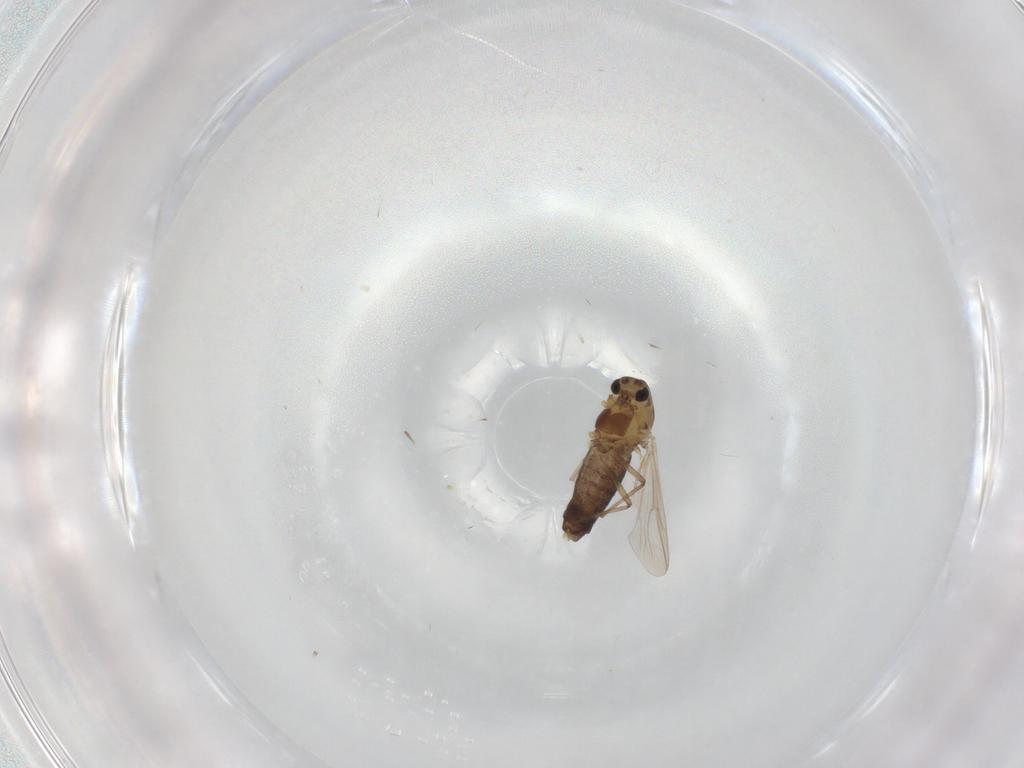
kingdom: Animalia
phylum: Arthropoda
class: Insecta
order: Diptera
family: Chironomidae
